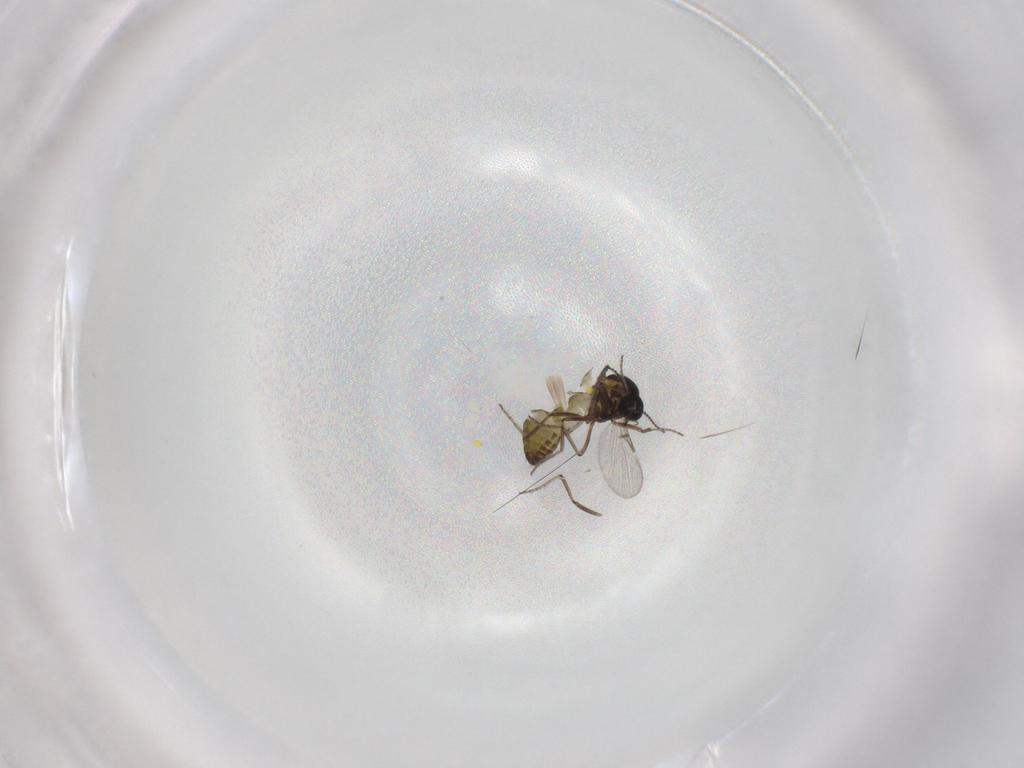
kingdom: Animalia
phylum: Arthropoda
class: Insecta
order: Diptera
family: Ceratopogonidae
